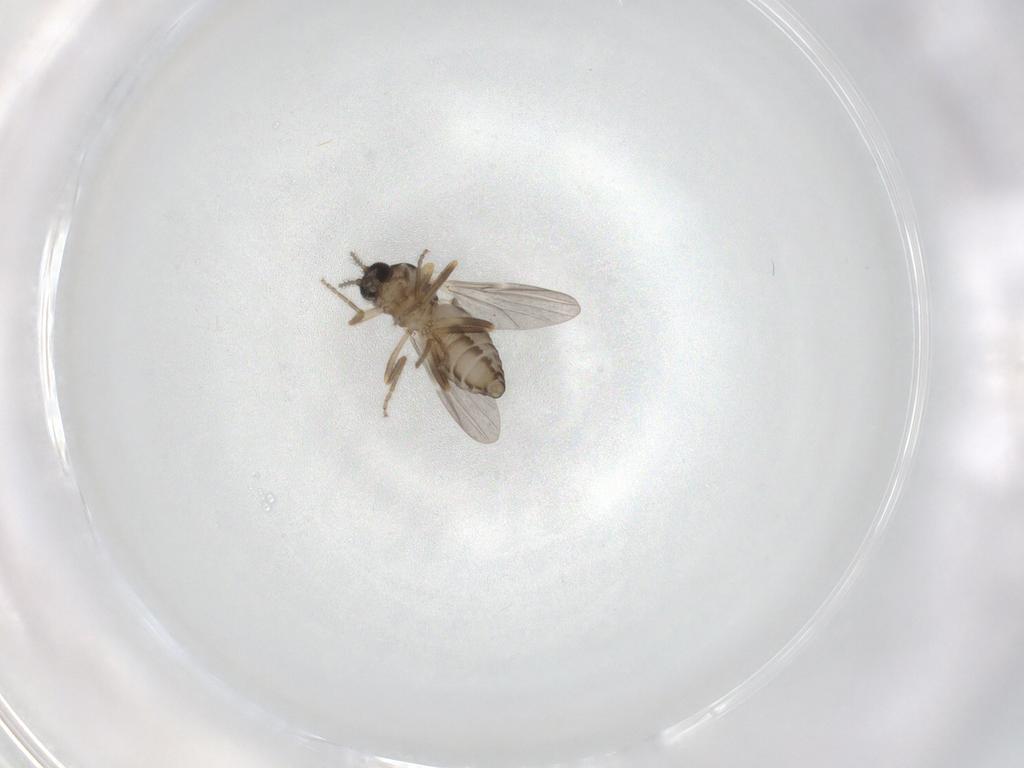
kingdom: Animalia
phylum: Arthropoda
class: Insecta
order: Diptera
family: Ceratopogonidae
